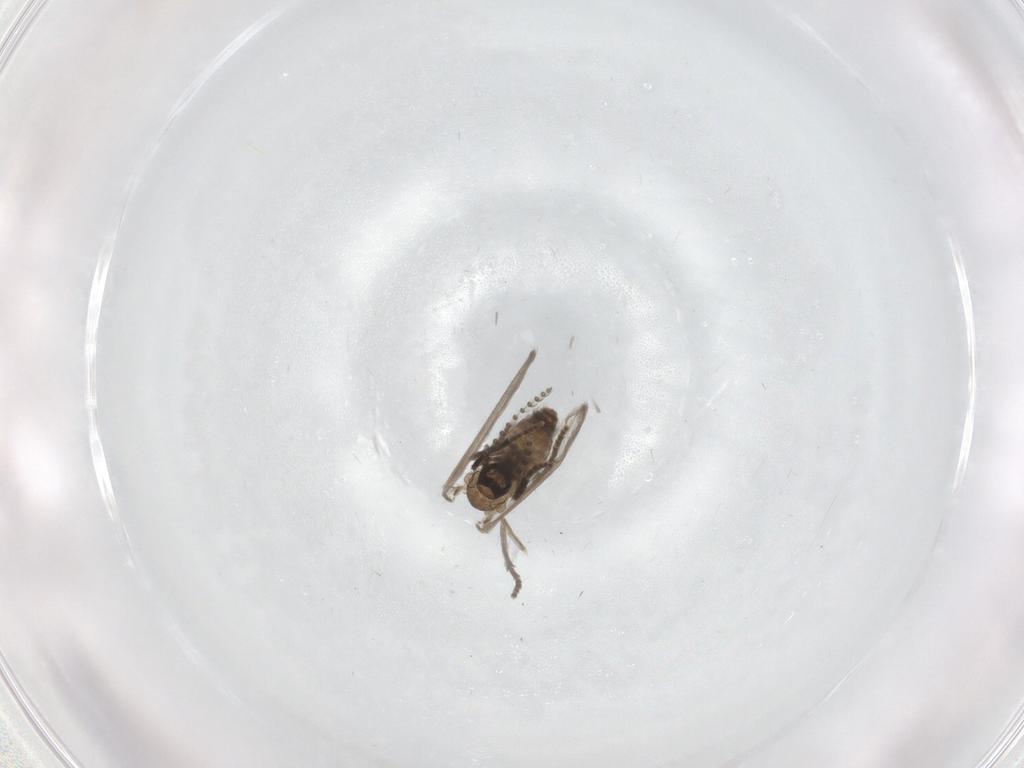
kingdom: Animalia
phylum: Arthropoda
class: Insecta
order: Diptera
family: Psychodidae
